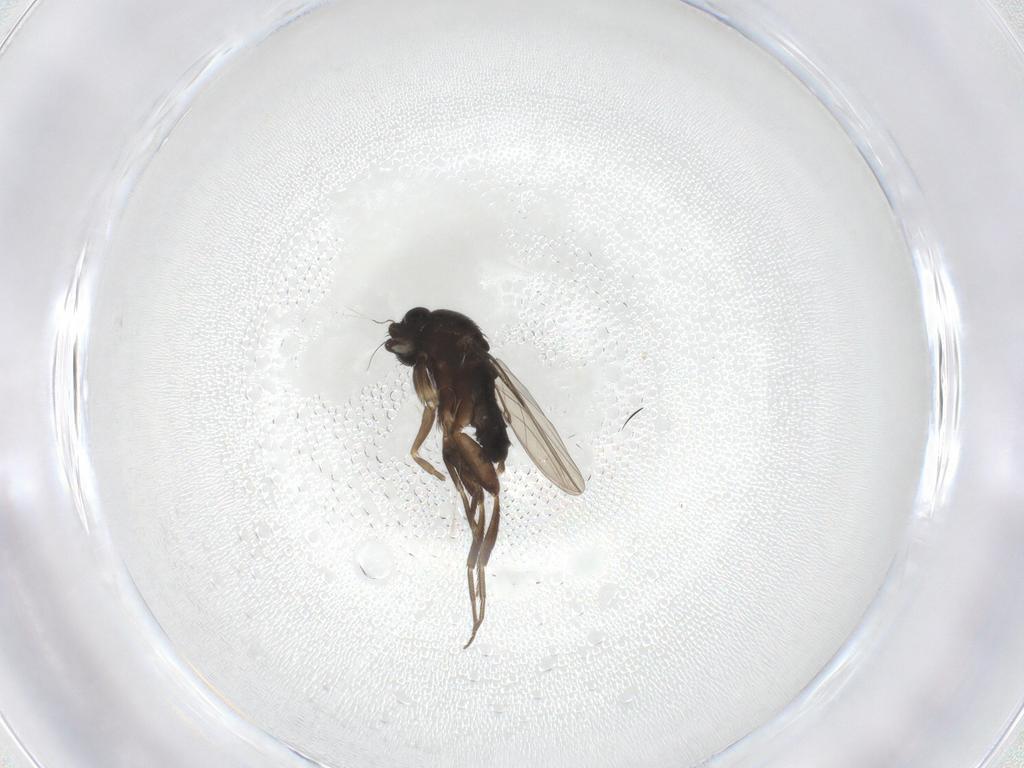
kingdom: Animalia
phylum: Arthropoda
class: Insecta
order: Diptera
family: Phoridae
